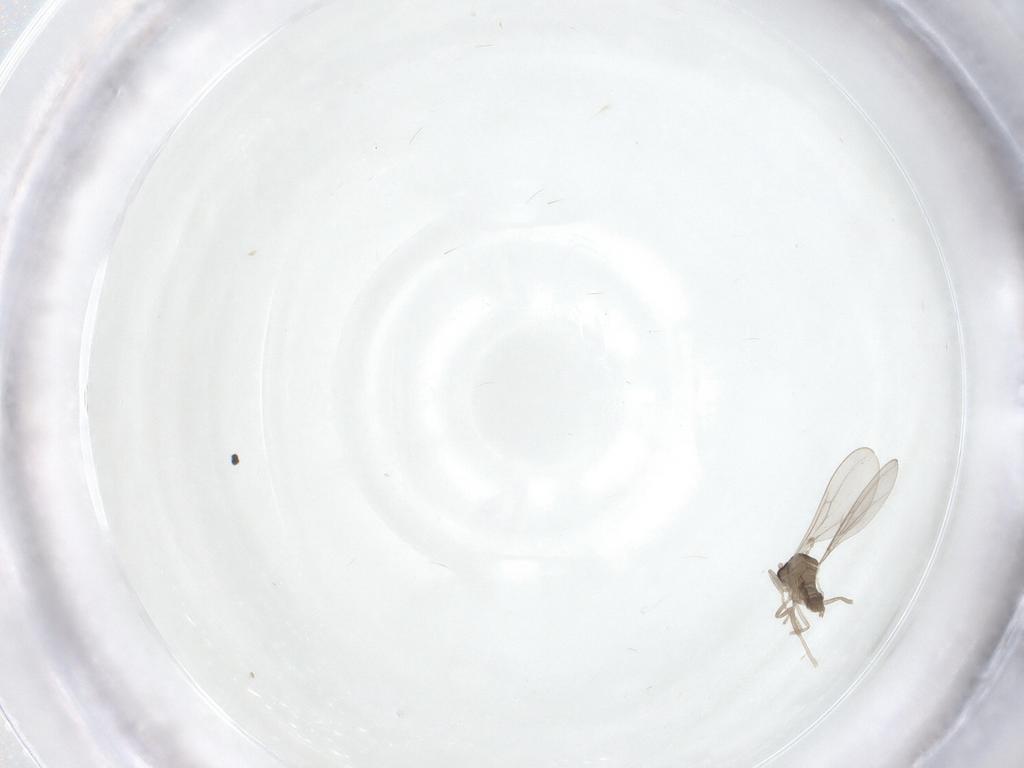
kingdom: Animalia
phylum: Arthropoda
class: Insecta
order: Diptera
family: Cecidomyiidae
